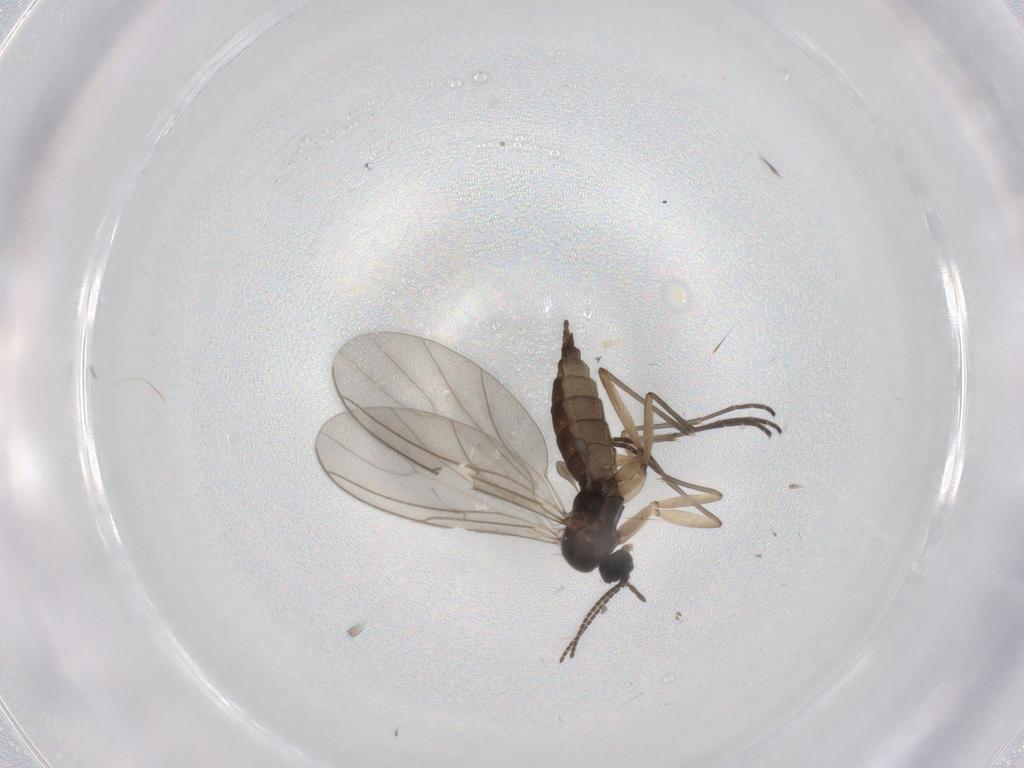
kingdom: Animalia
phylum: Arthropoda
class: Insecta
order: Diptera
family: Sciaridae
